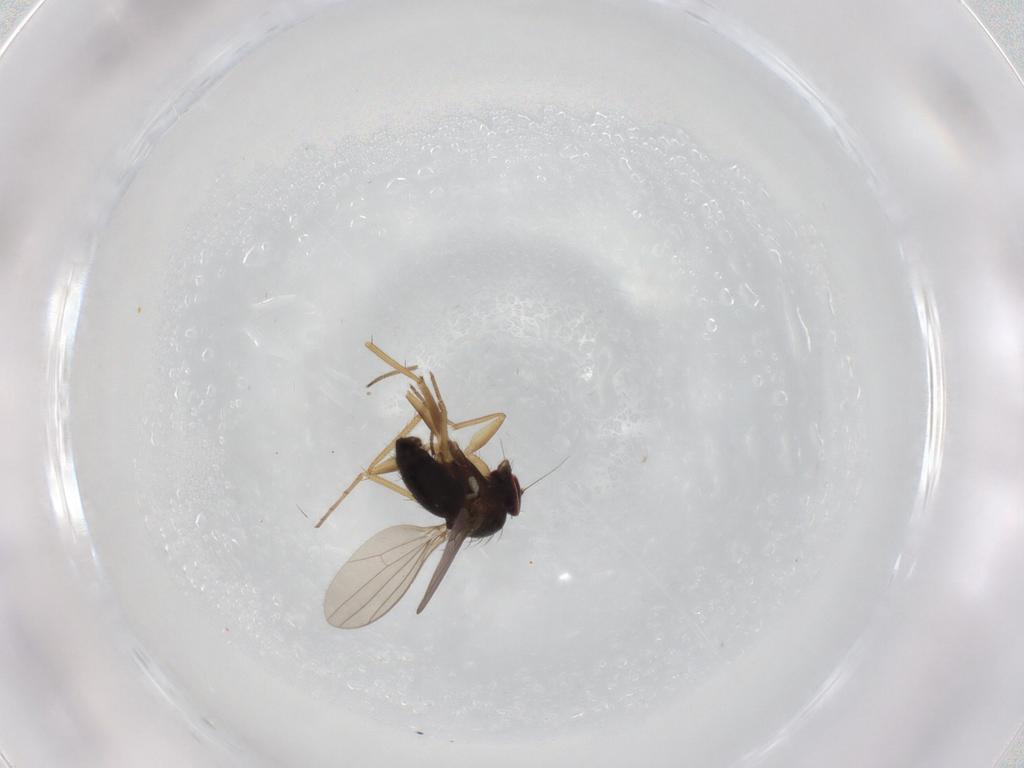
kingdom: Animalia
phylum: Arthropoda
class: Insecta
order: Diptera
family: Dolichopodidae
